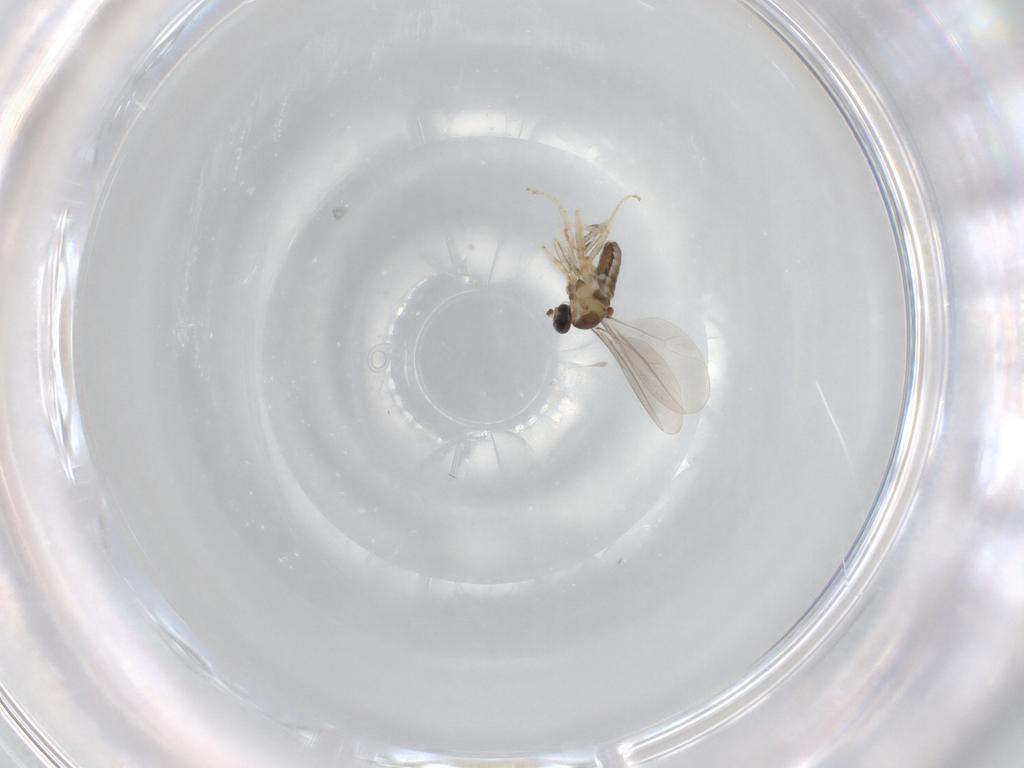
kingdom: Animalia
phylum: Arthropoda
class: Insecta
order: Diptera
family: Cecidomyiidae
